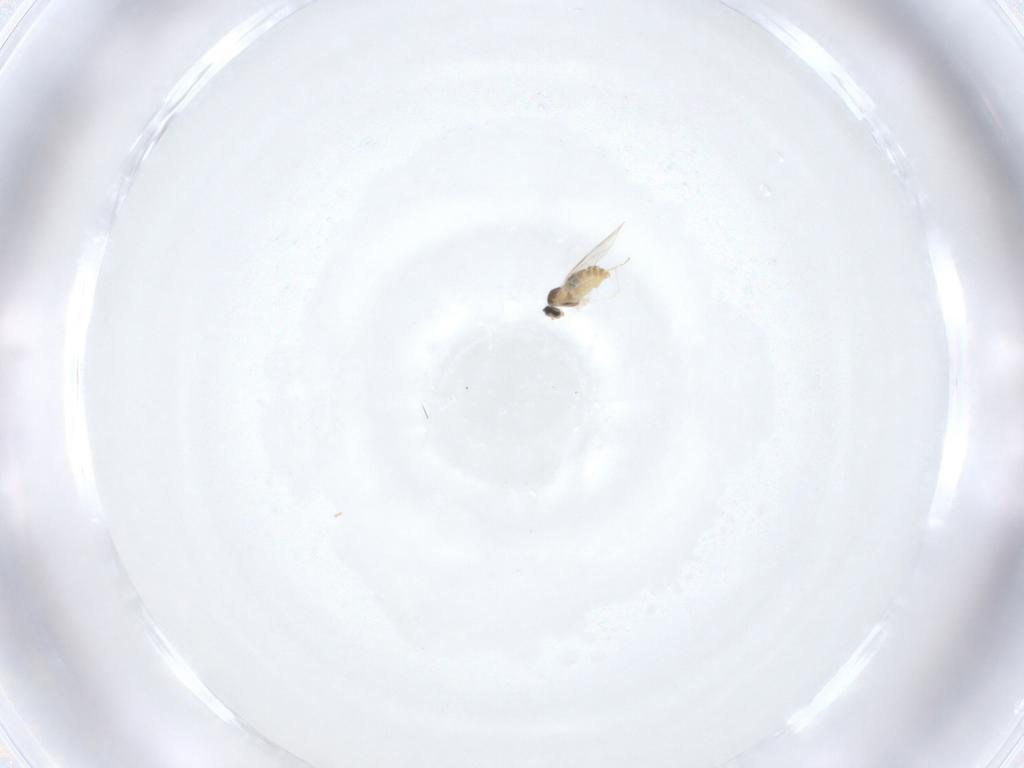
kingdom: Animalia
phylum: Arthropoda
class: Insecta
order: Diptera
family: Cecidomyiidae
